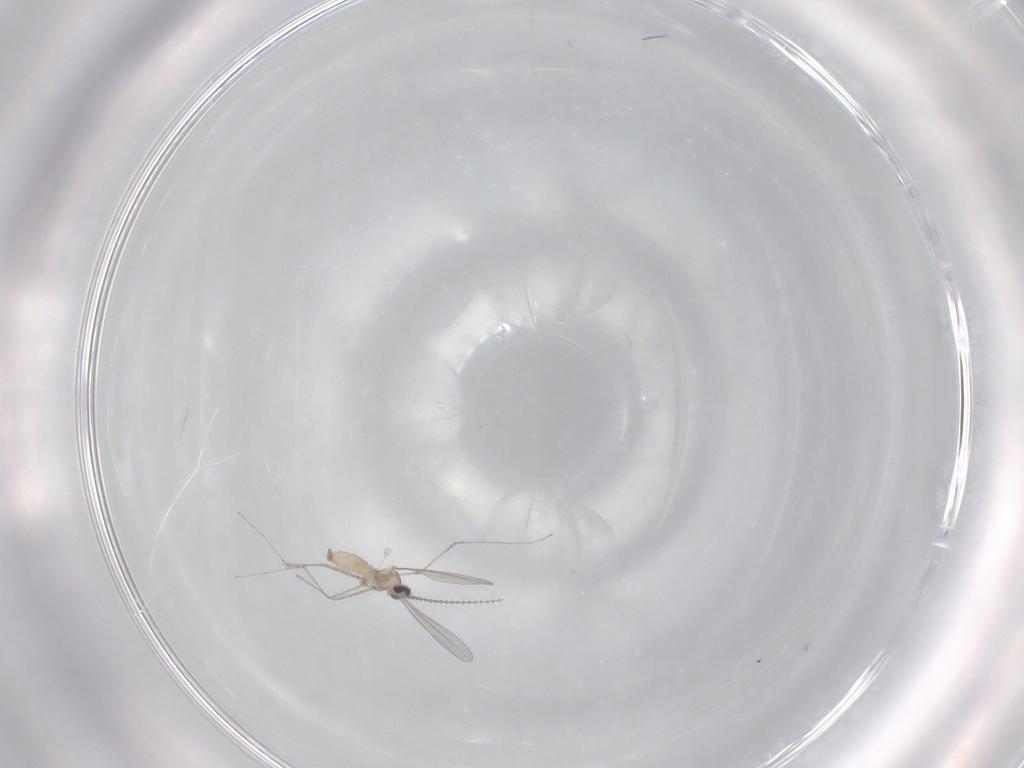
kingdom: Animalia
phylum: Arthropoda
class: Insecta
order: Diptera
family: Cecidomyiidae
